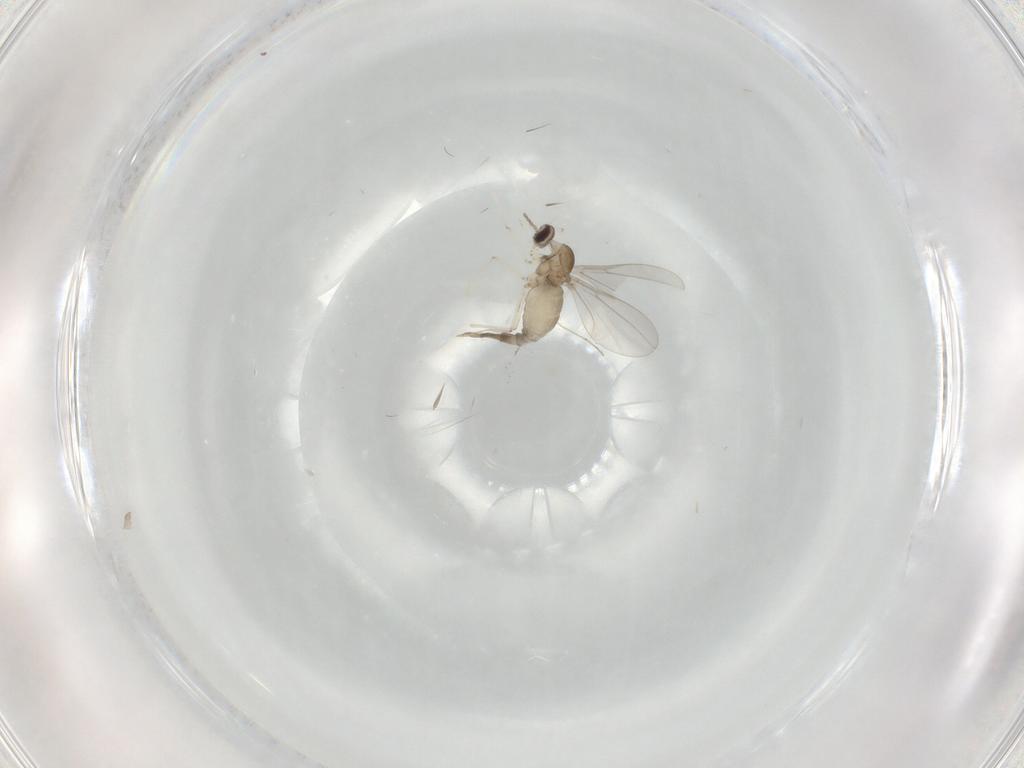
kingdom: Animalia
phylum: Arthropoda
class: Insecta
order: Diptera
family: Cecidomyiidae
